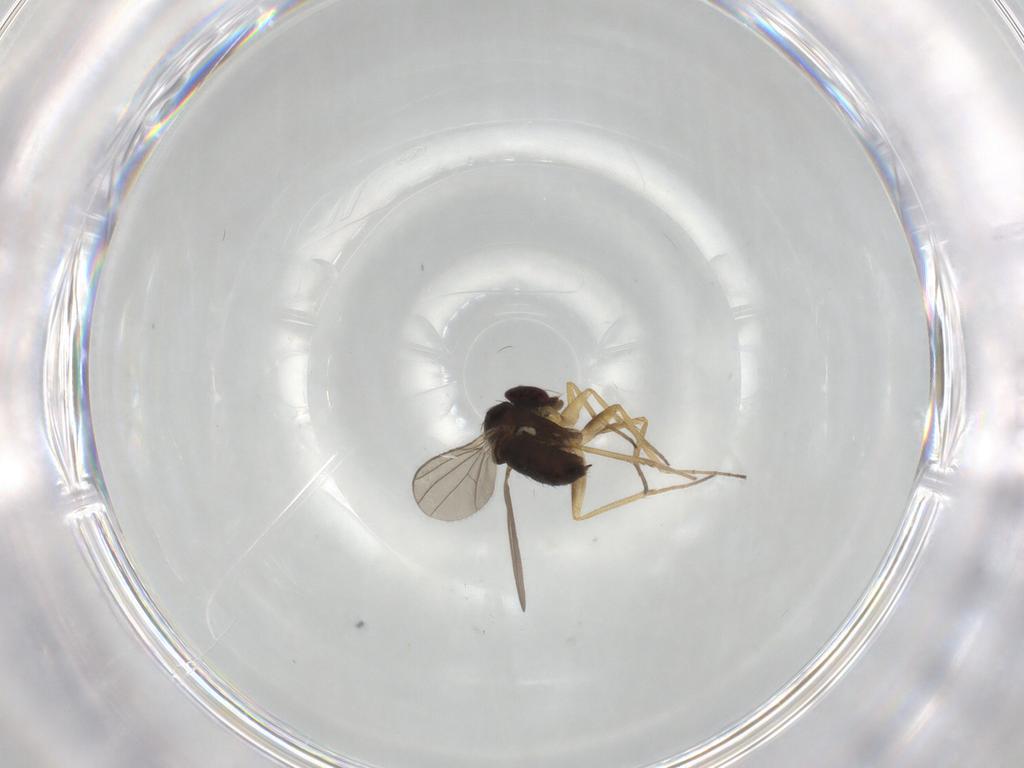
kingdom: Animalia
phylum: Arthropoda
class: Insecta
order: Diptera
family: Dolichopodidae
